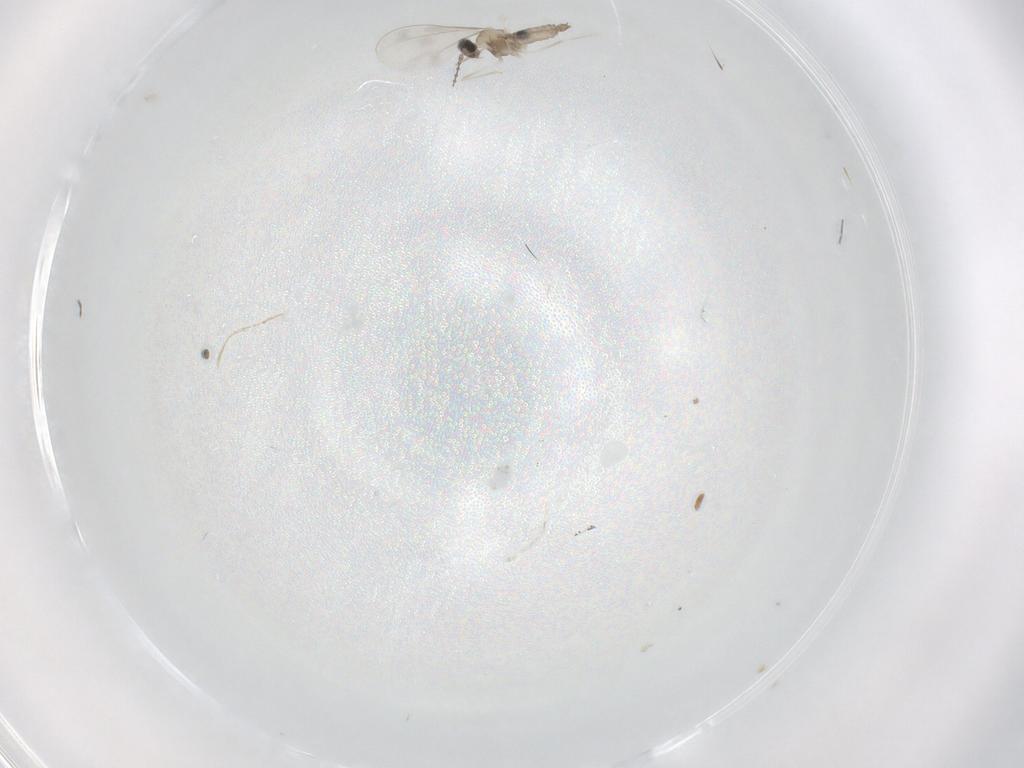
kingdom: Animalia
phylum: Arthropoda
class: Insecta
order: Diptera
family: Cecidomyiidae
